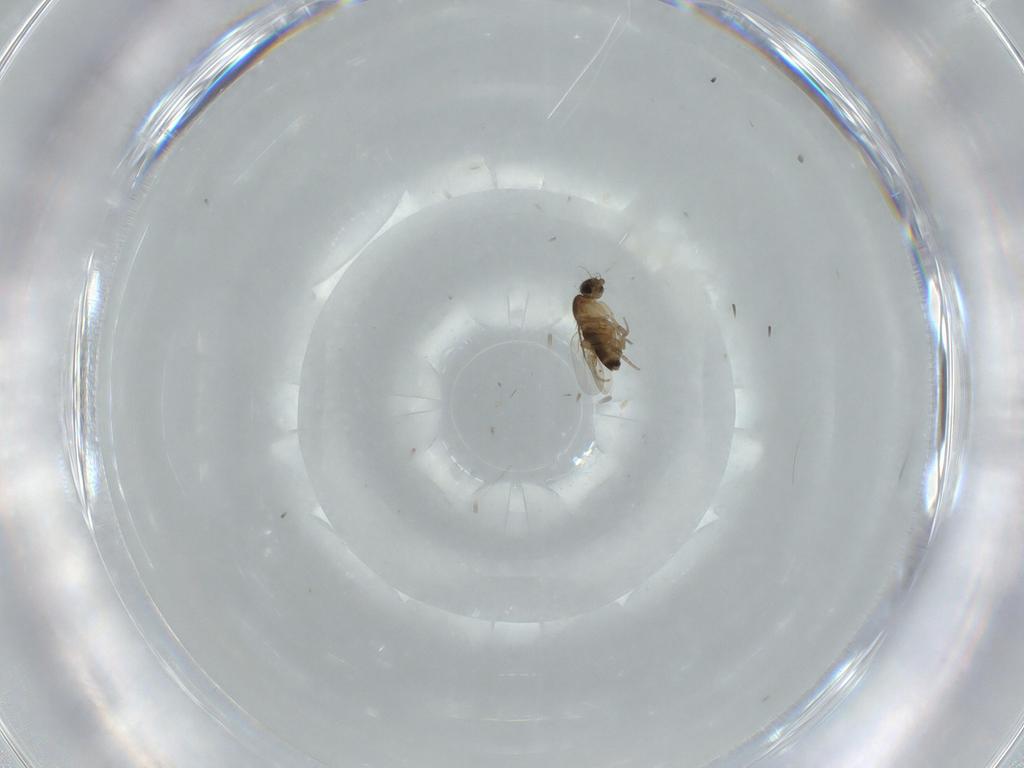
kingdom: Animalia
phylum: Arthropoda
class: Insecta
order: Diptera
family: Phoridae
